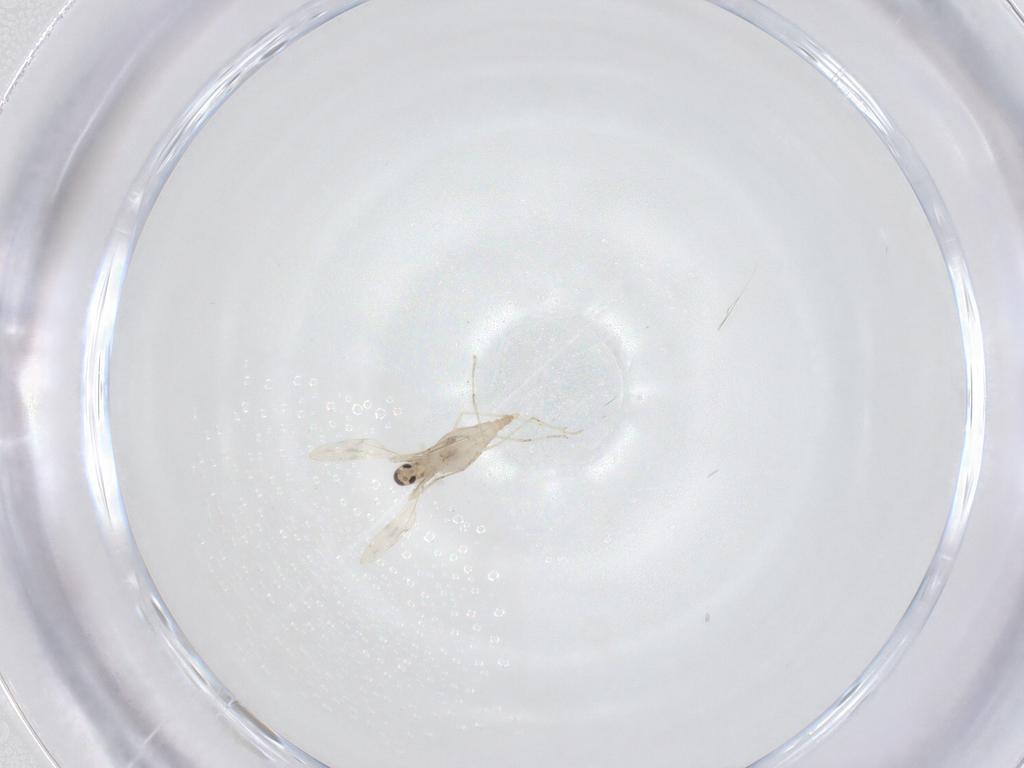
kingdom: Animalia
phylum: Arthropoda
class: Insecta
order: Diptera
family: Cecidomyiidae
